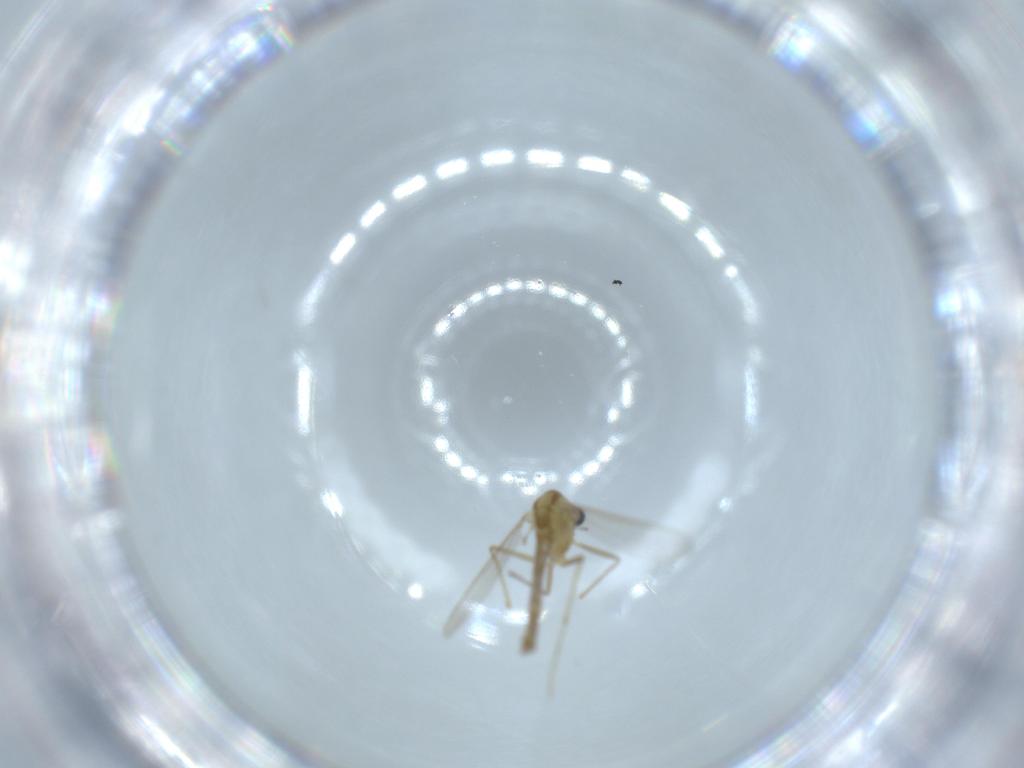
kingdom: Animalia
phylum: Arthropoda
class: Insecta
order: Diptera
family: Chironomidae
